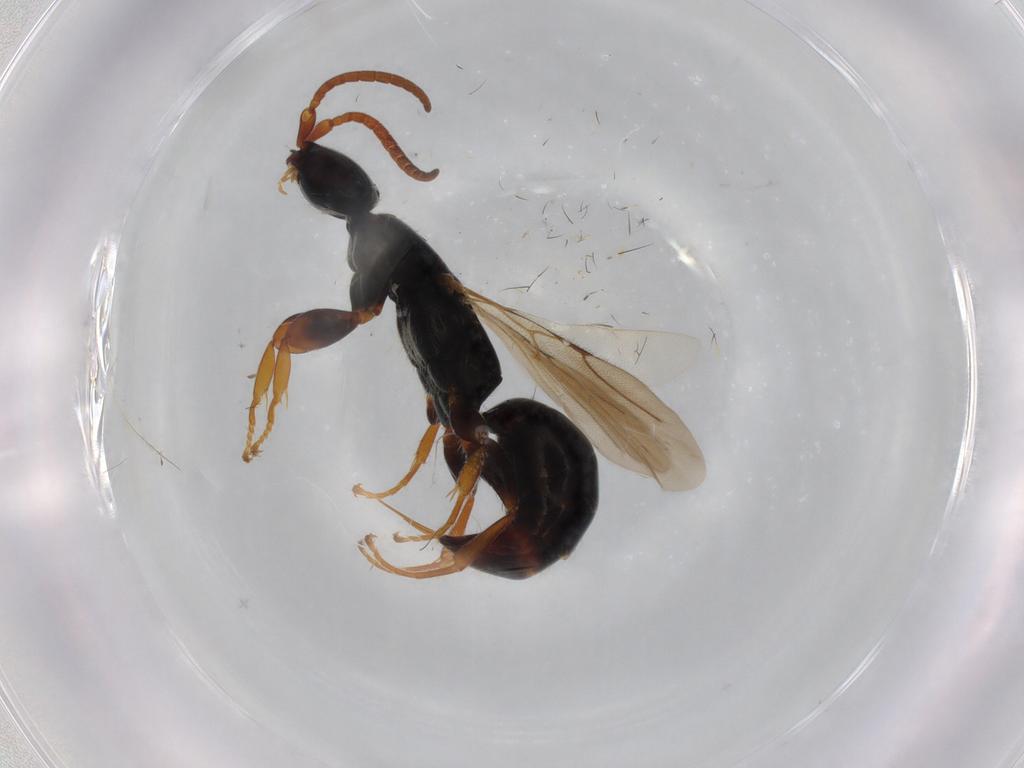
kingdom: Animalia
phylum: Arthropoda
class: Insecta
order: Hymenoptera
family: Bethylidae
